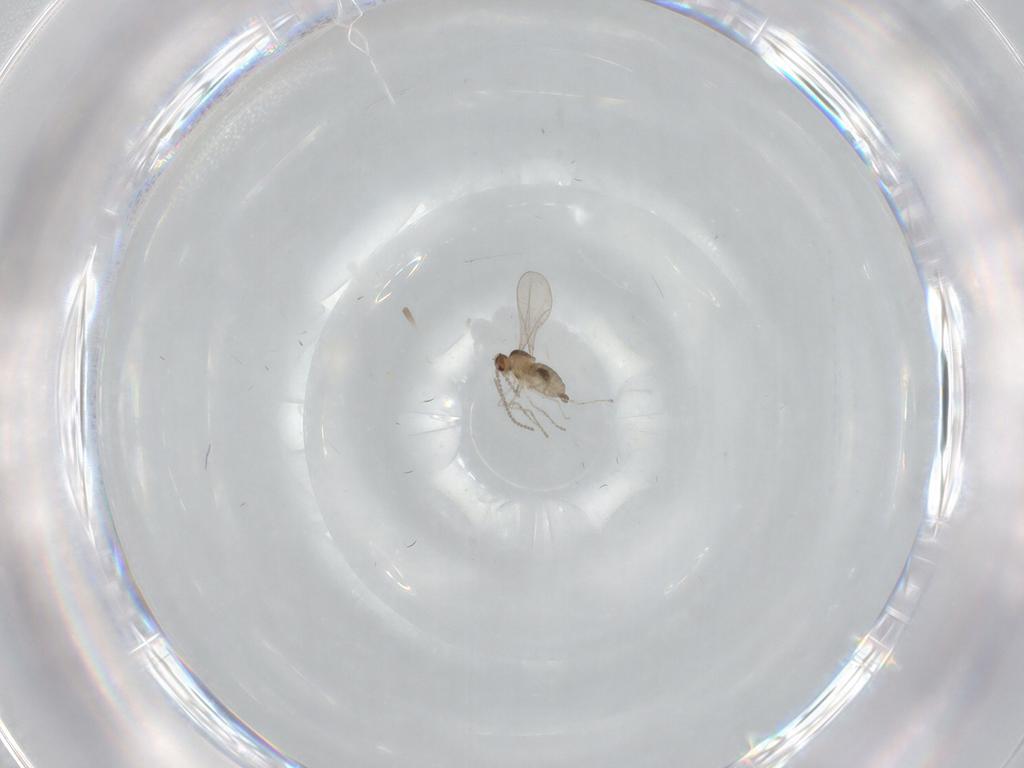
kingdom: Animalia
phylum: Arthropoda
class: Insecta
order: Diptera
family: Cecidomyiidae
